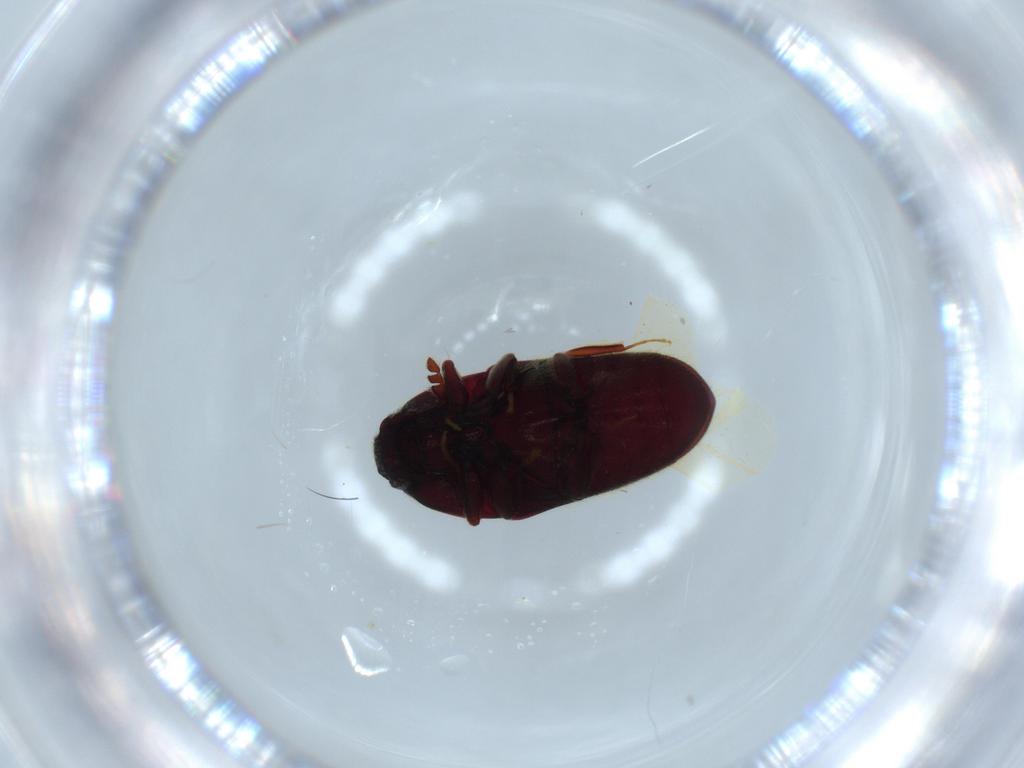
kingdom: Animalia
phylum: Arthropoda
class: Insecta
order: Coleoptera
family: Throscidae
